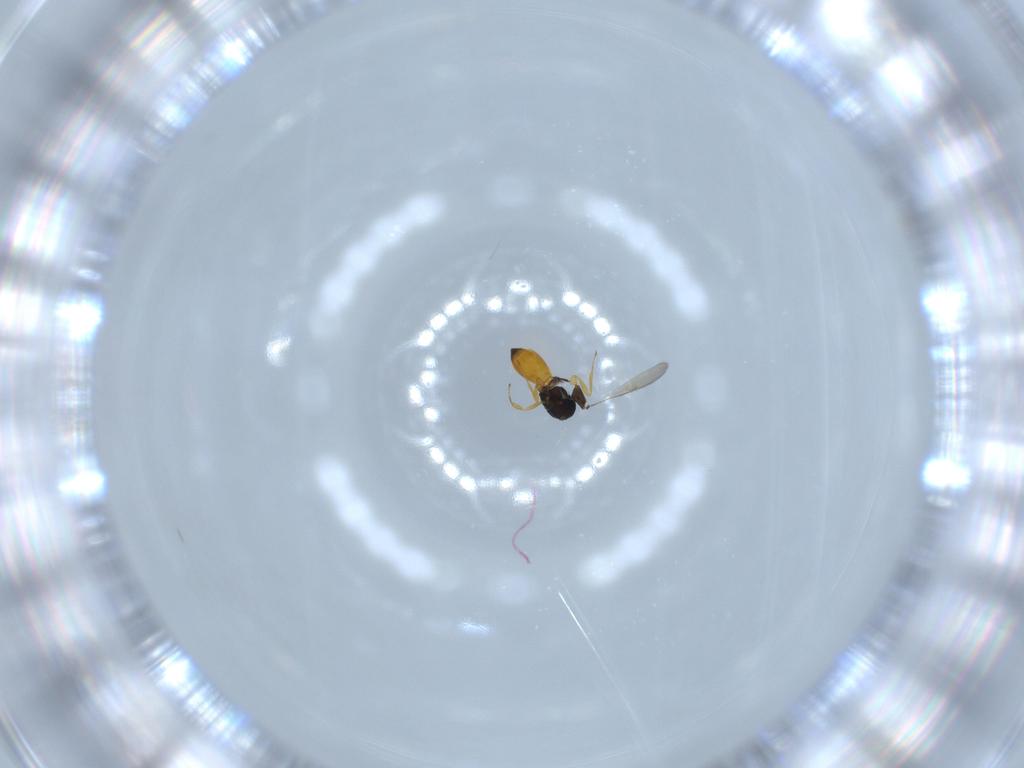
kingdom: Animalia
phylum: Arthropoda
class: Insecta
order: Hymenoptera
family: Scelionidae
